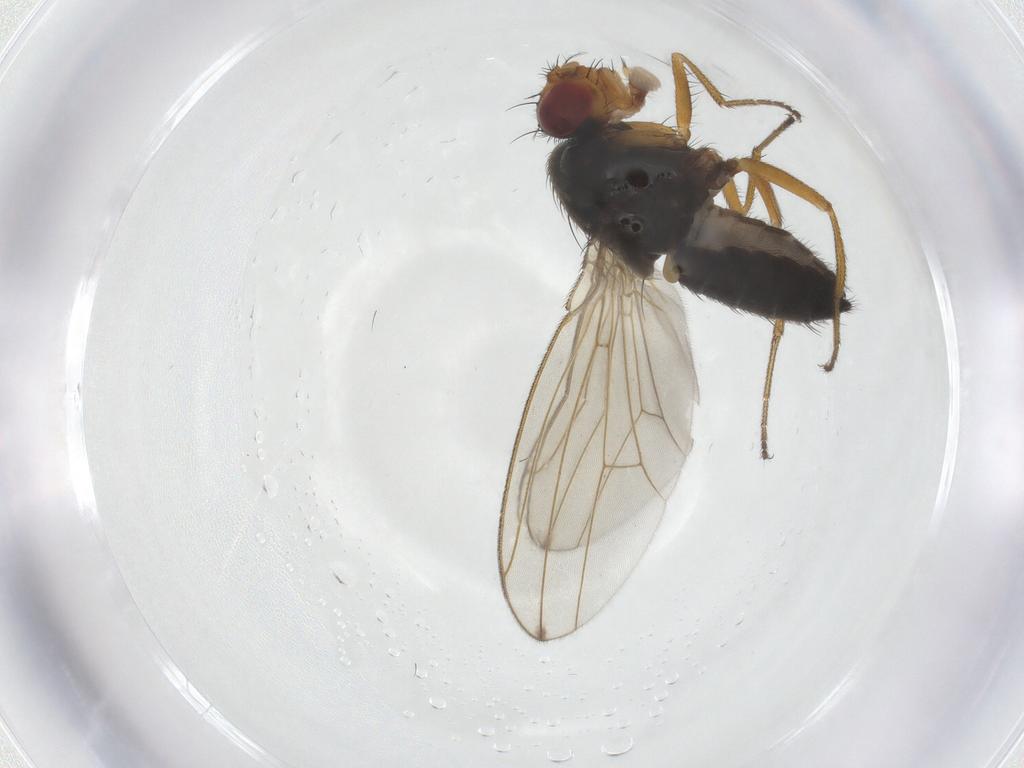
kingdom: Animalia
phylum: Arthropoda
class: Insecta
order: Diptera
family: Drosophilidae
